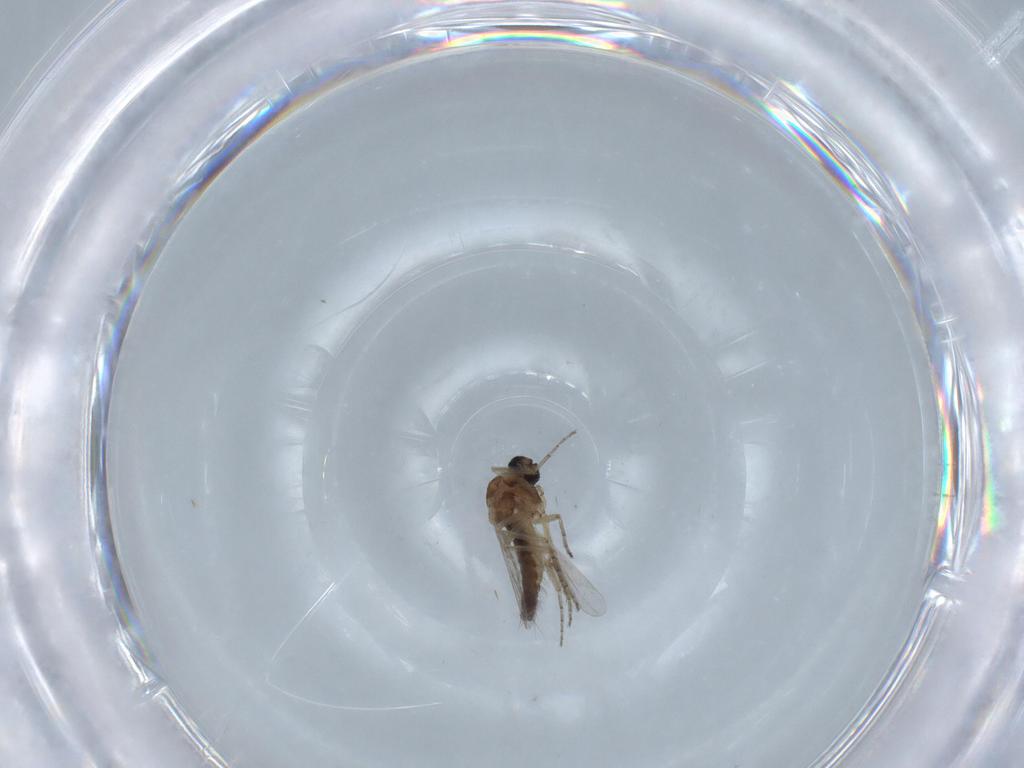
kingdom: Animalia
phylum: Arthropoda
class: Insecta
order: Diptera
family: Ceratopogonidae
